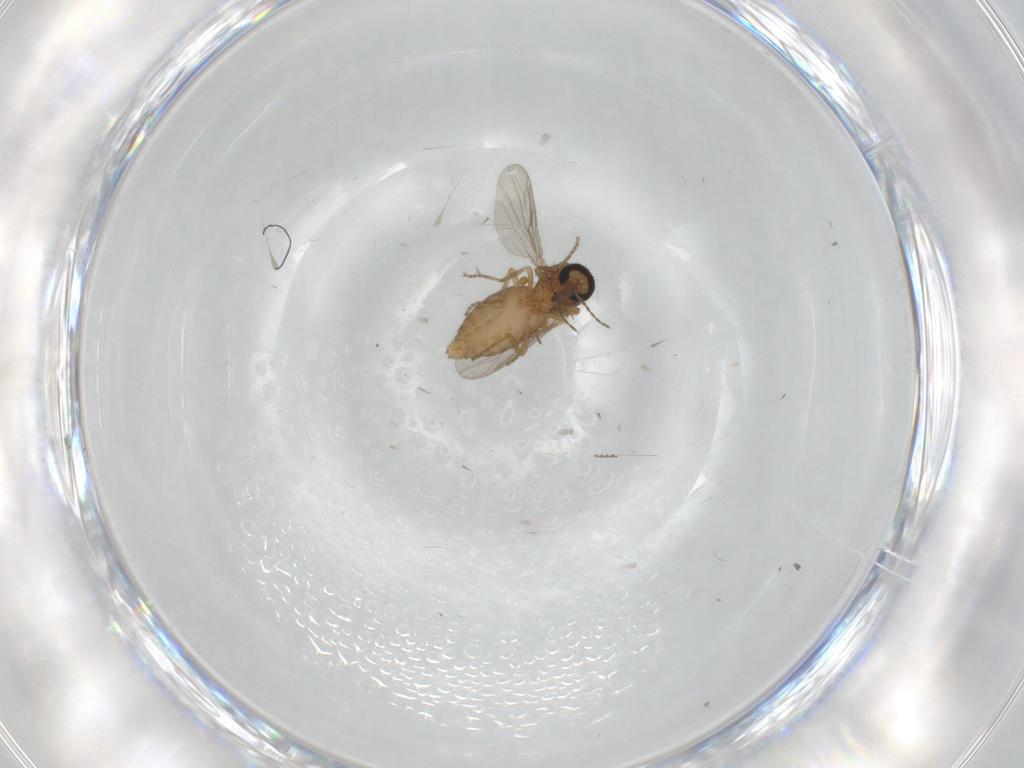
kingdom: Animalia
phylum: Arthropoda
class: Insecta
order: Diptera
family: Ceratopogonidae
